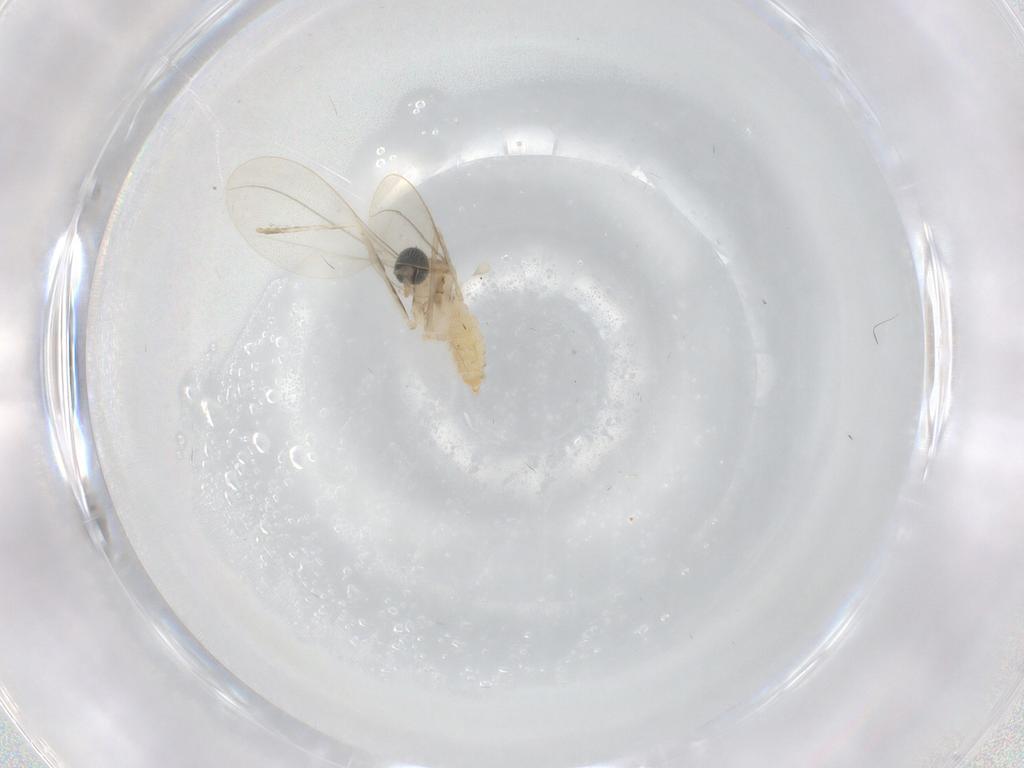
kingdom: Animalia
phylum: Arthropoda
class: Insecta
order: Diptera
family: Cecidomyiidae
